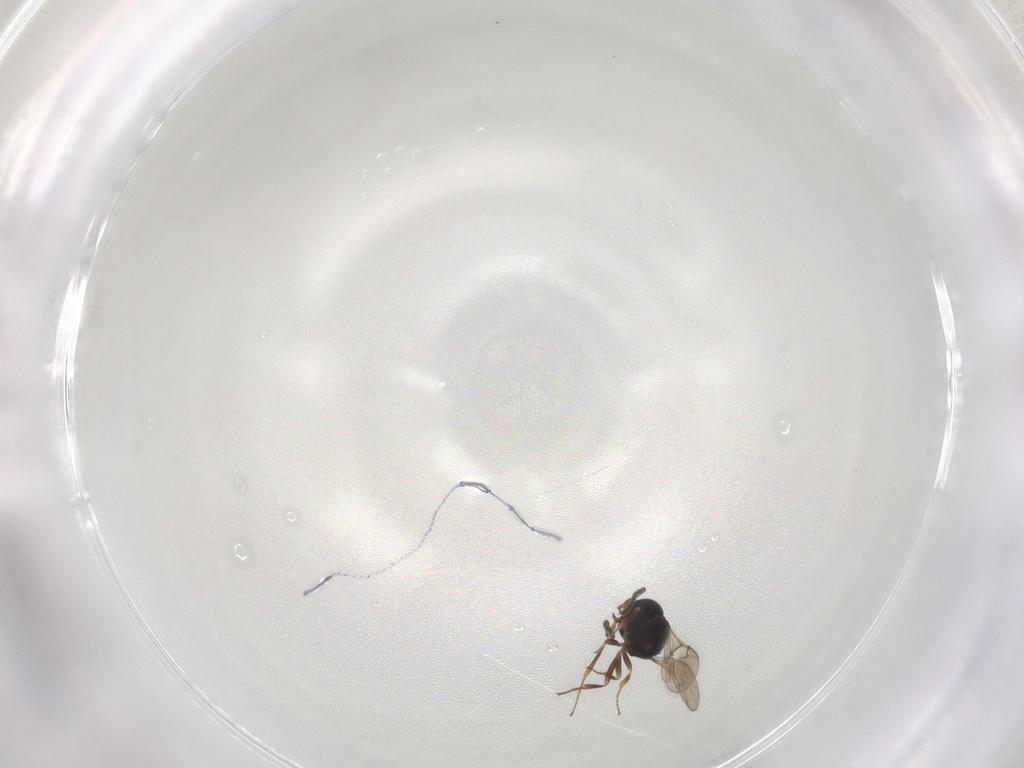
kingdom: Animalia
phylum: Arthropoda
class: Insecta
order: Hymenoptera
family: Scelionidae
